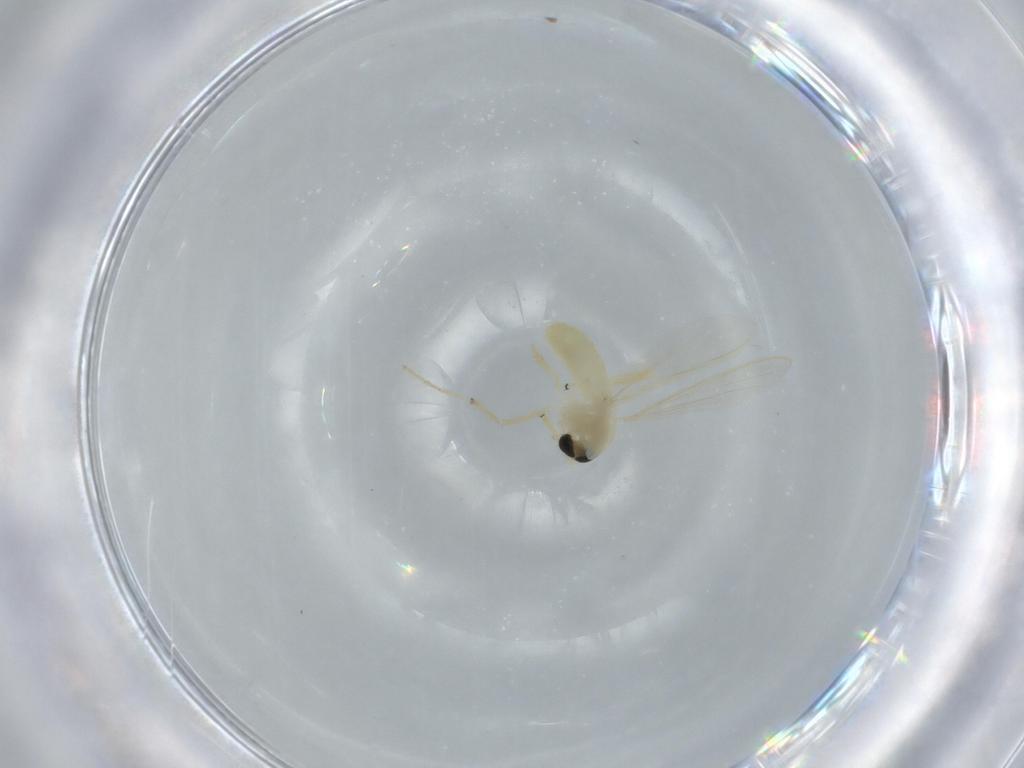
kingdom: Animalia
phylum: Arthropoda
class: Insecta
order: Diptera
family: Chironomidae
